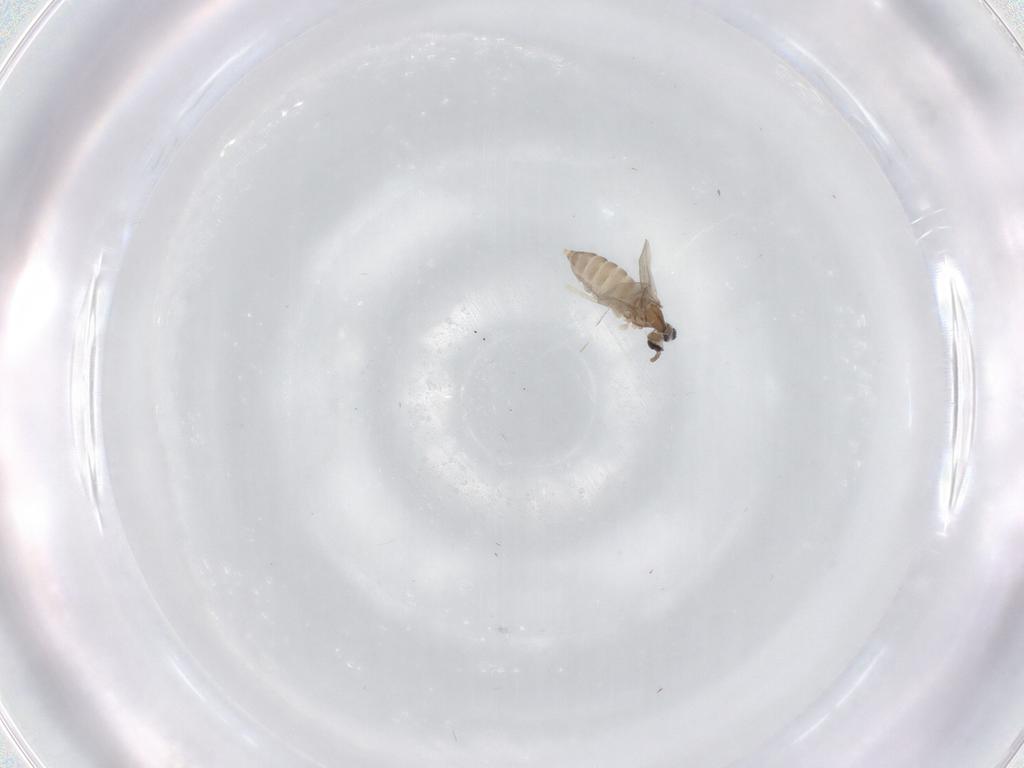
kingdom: Animalia
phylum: Arthropoda
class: Insecta
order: Diptera
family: Cecidomyiidae
